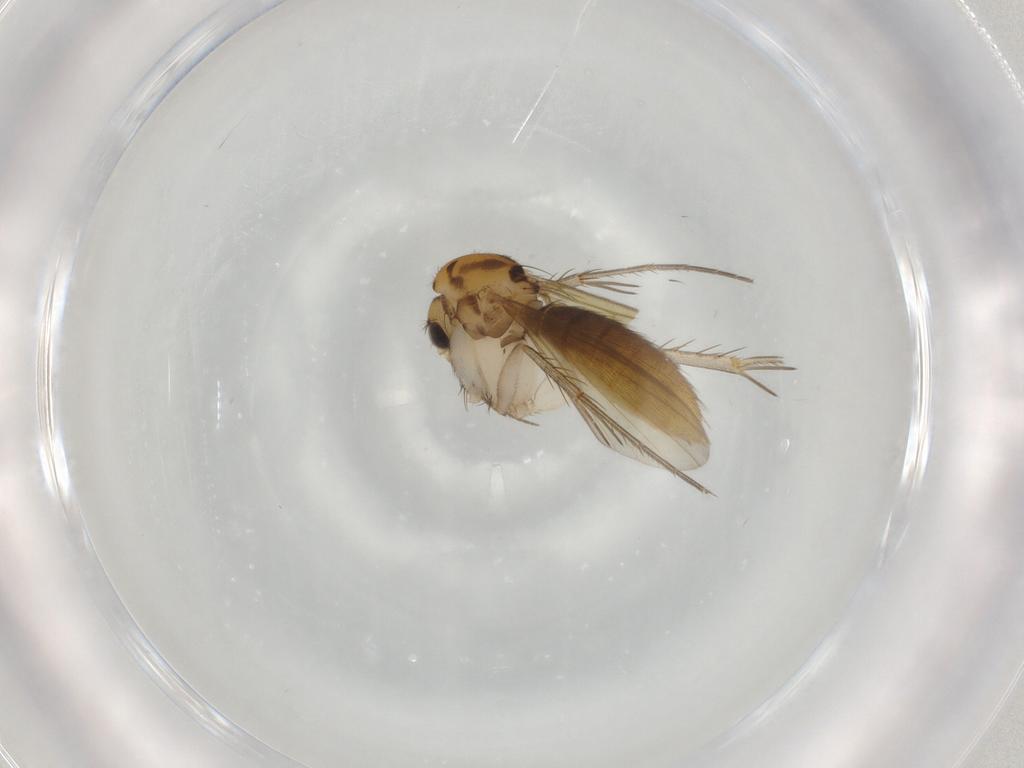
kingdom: Animalia
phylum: Arthropoda
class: Insecta
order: Diptera
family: Mycetophilidae
